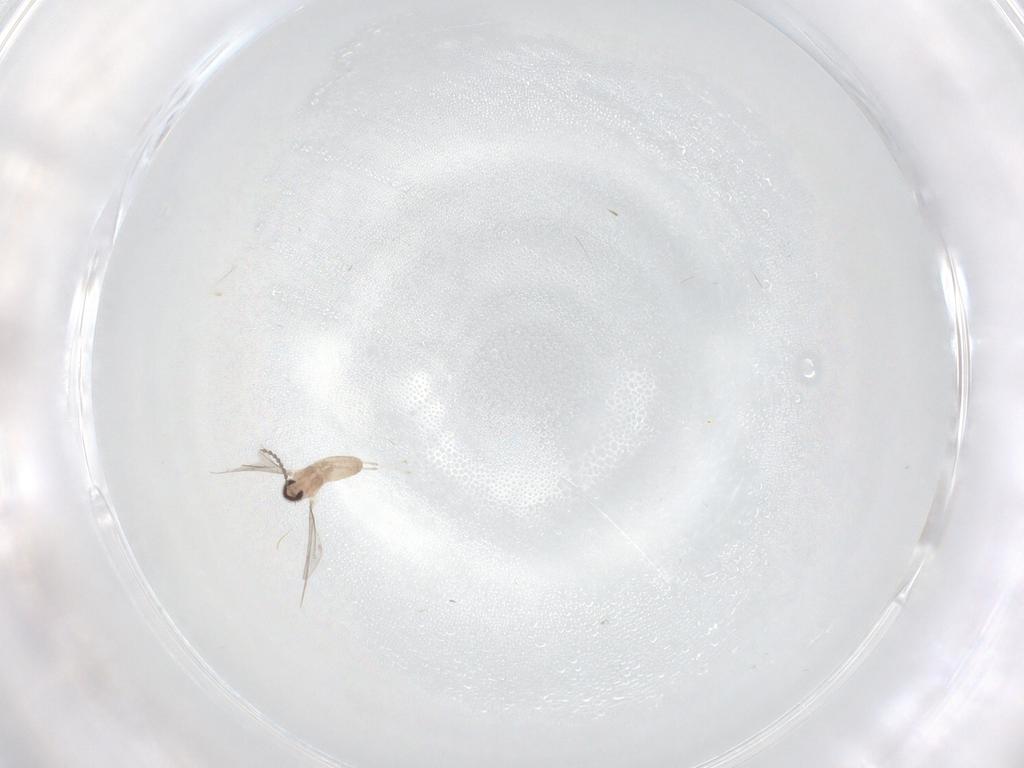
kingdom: Animalia
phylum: Arthropoda
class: Insecta
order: Diptera
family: Cecidomyiidae
